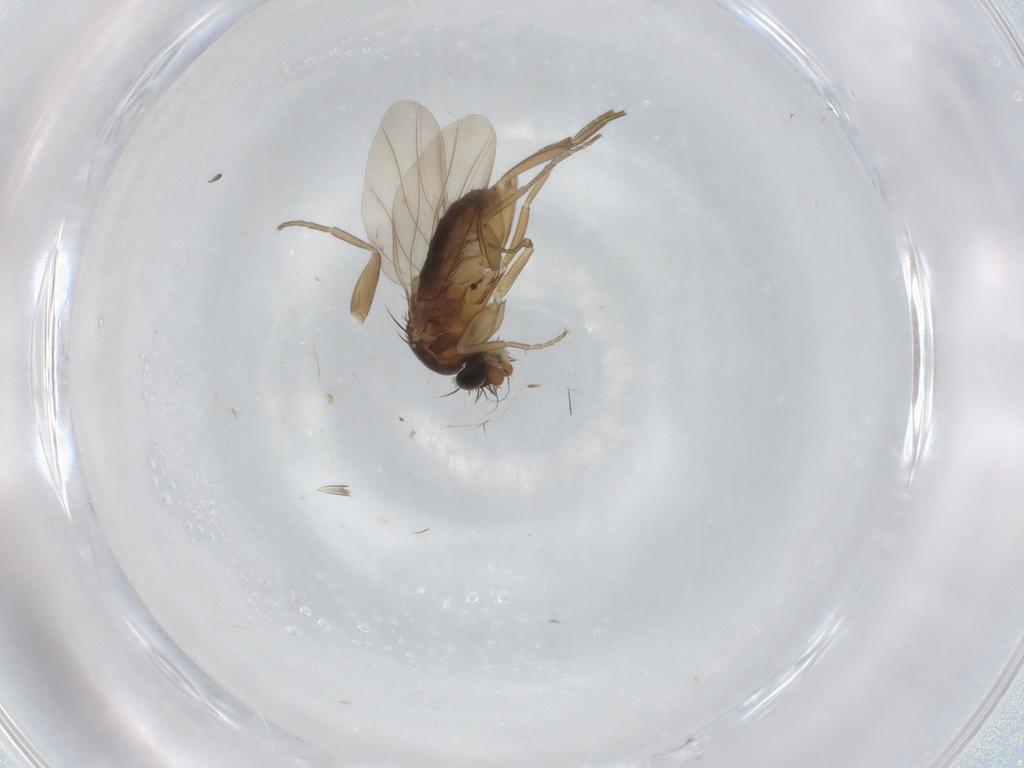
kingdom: Animalia
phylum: Arthropoda
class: Insecta
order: Diptera
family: Phoridae
